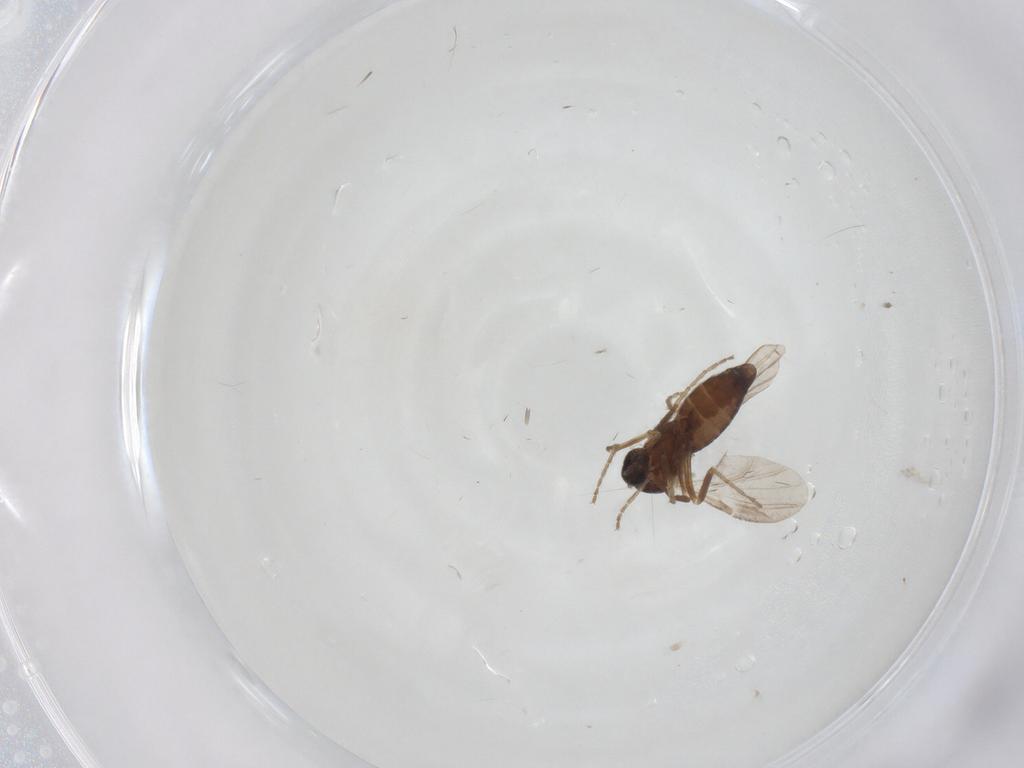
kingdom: Animalia
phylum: Arthropoda
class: Insecta
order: Diptera
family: Ceratopogonidae
